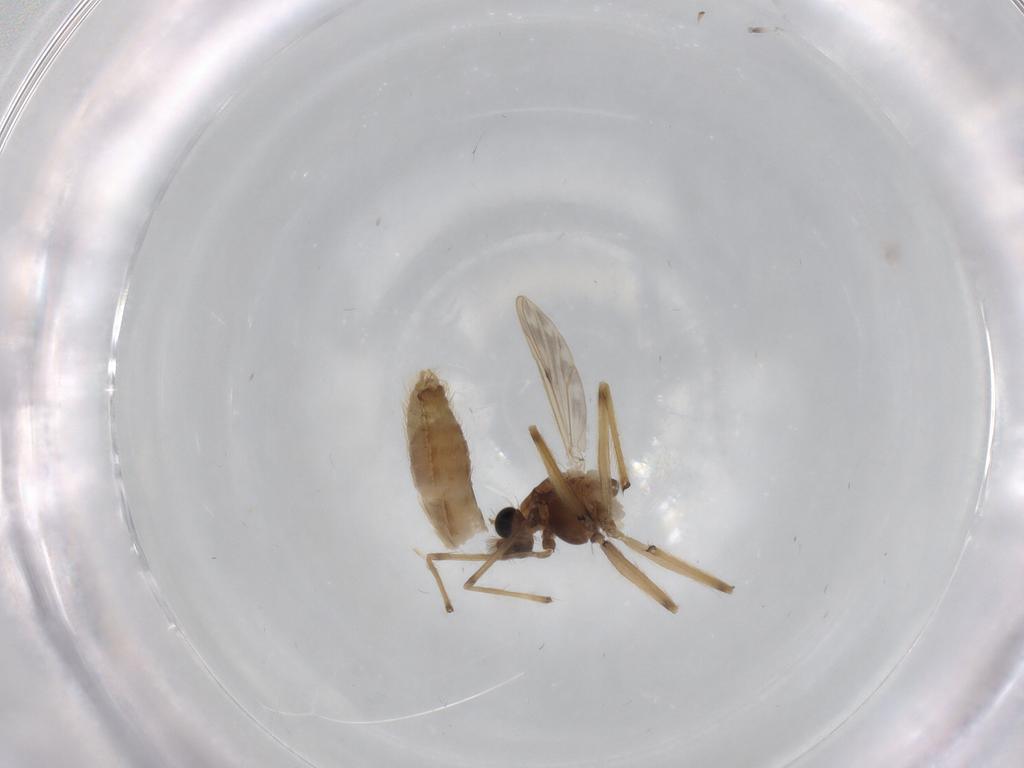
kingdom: Animalia
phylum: Arthropoda
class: Insecta
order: Diptera
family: Chironomidae
